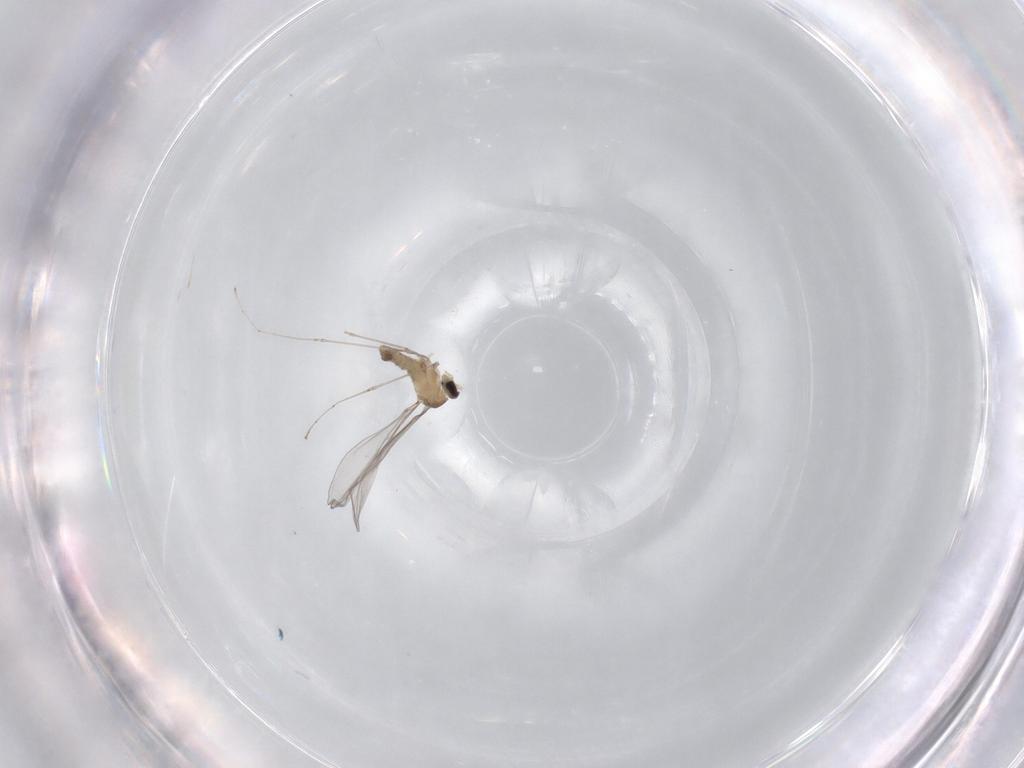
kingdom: Animalia
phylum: Arthropoda
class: Insecta
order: Diptera
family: Cecidomyiidae
